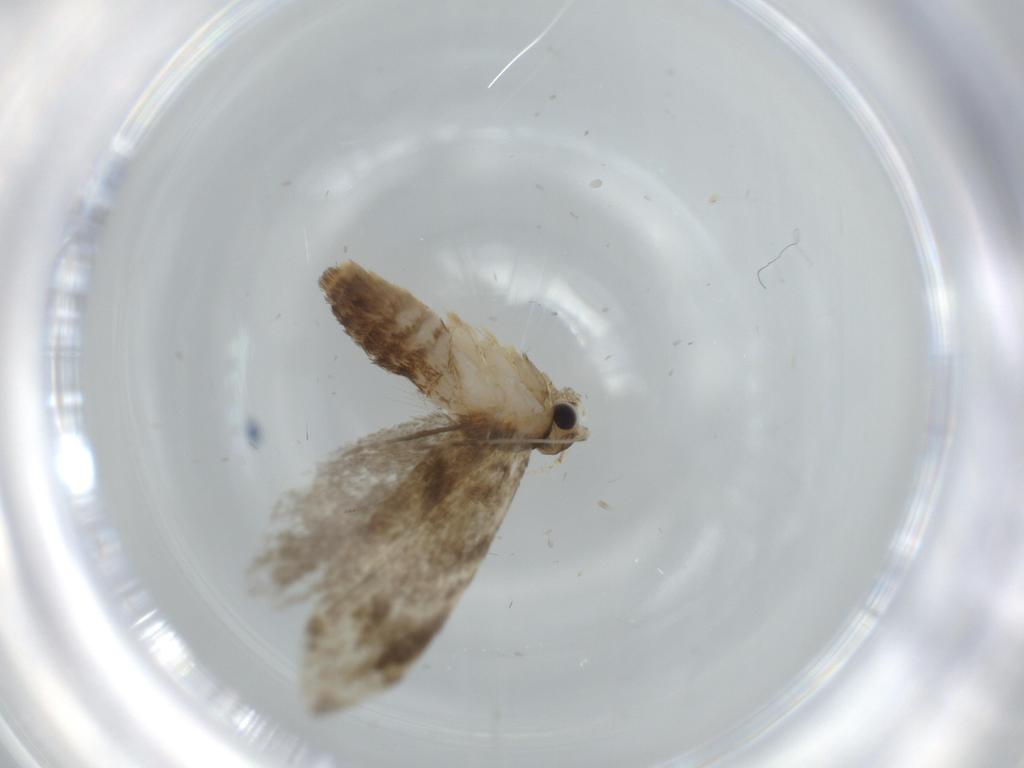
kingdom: Animalia
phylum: Arthropoda
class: Insecta
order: Lepidoptera
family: Tineidae
